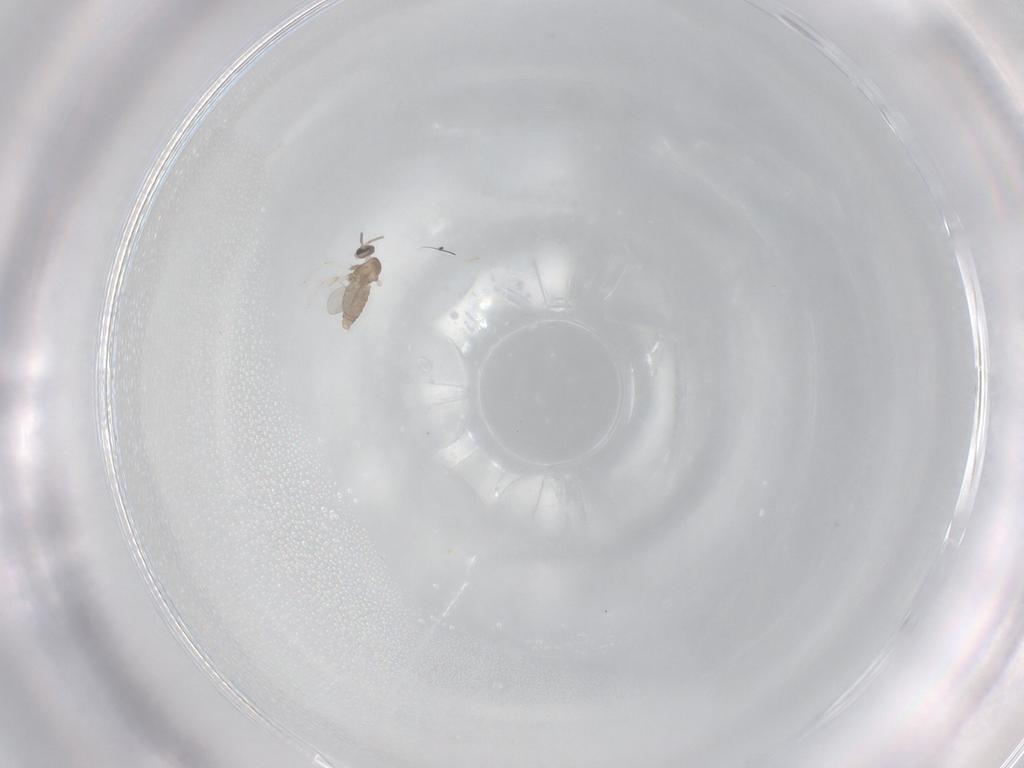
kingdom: Animalia
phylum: Arthropoda
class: Insecta
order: Diptera
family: Cecidomyiidae
